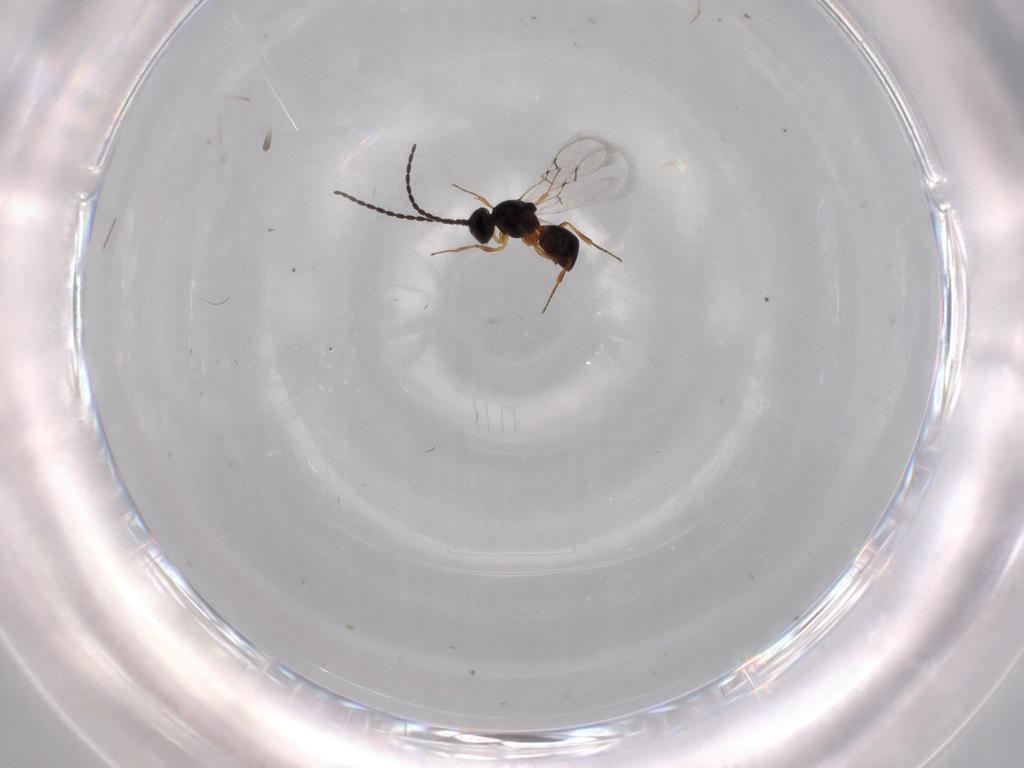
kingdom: Animalia
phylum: Arthropoda
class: Insecta
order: Hymenoptera
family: Figitidae
